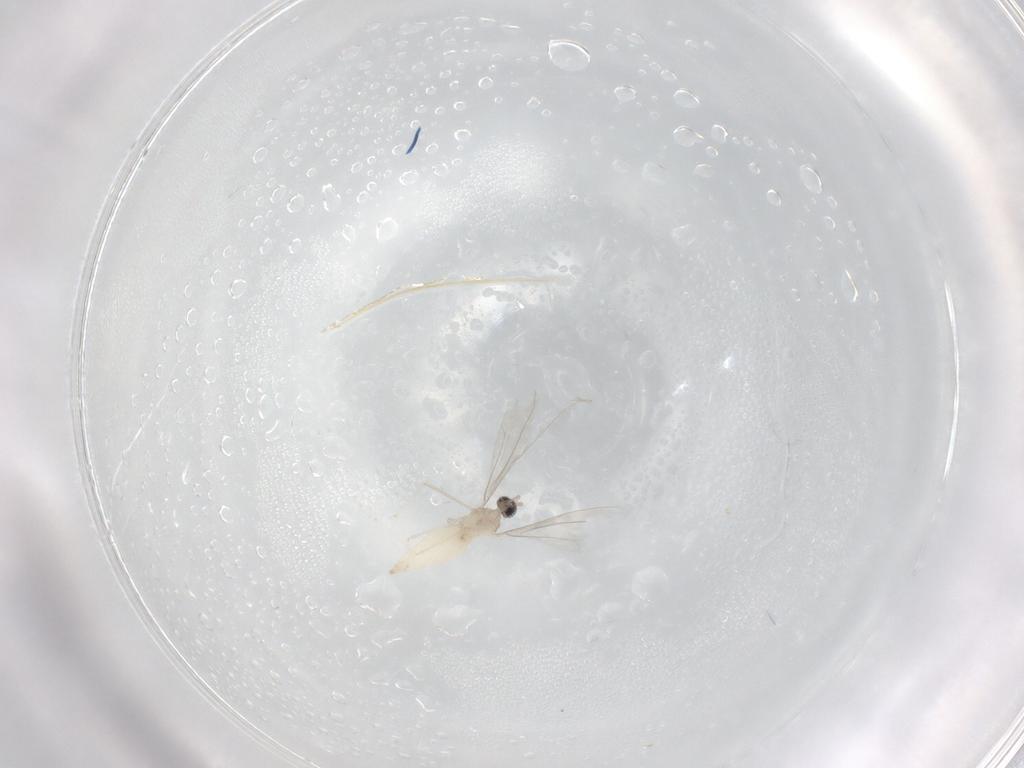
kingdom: Animalia
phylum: Arthropoda
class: Insecta
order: Diptera
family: Cecidomyiidae
